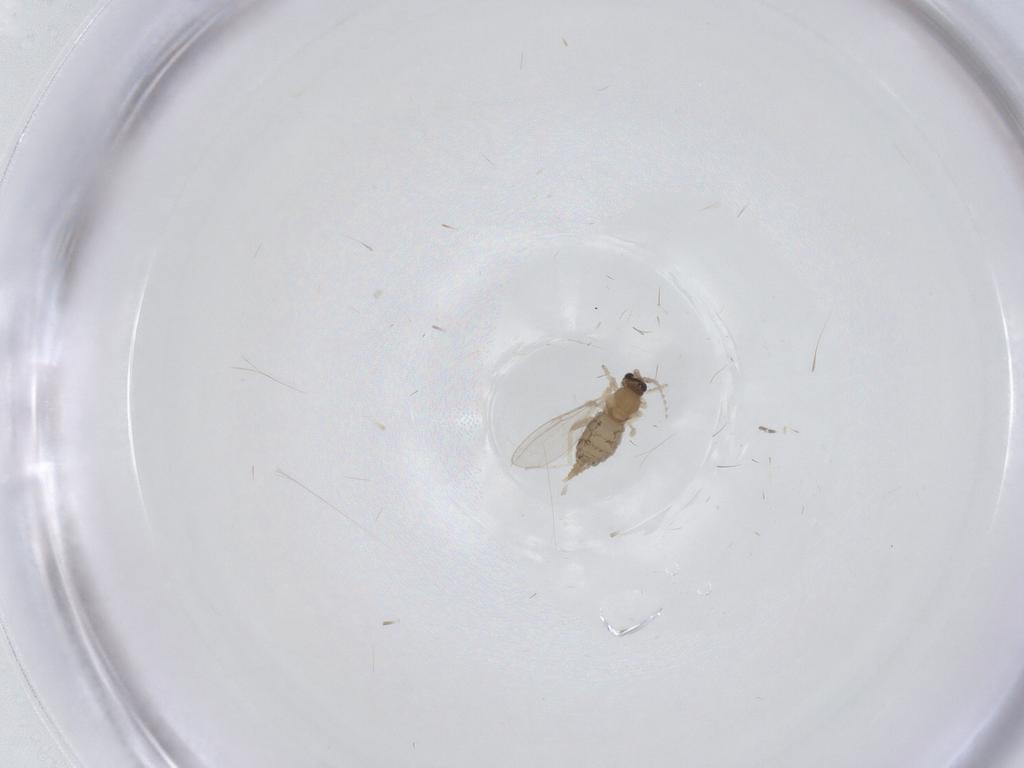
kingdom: Animalia
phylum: Arthropoda
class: Insecta
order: Diptera
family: Cecidomyiidae
